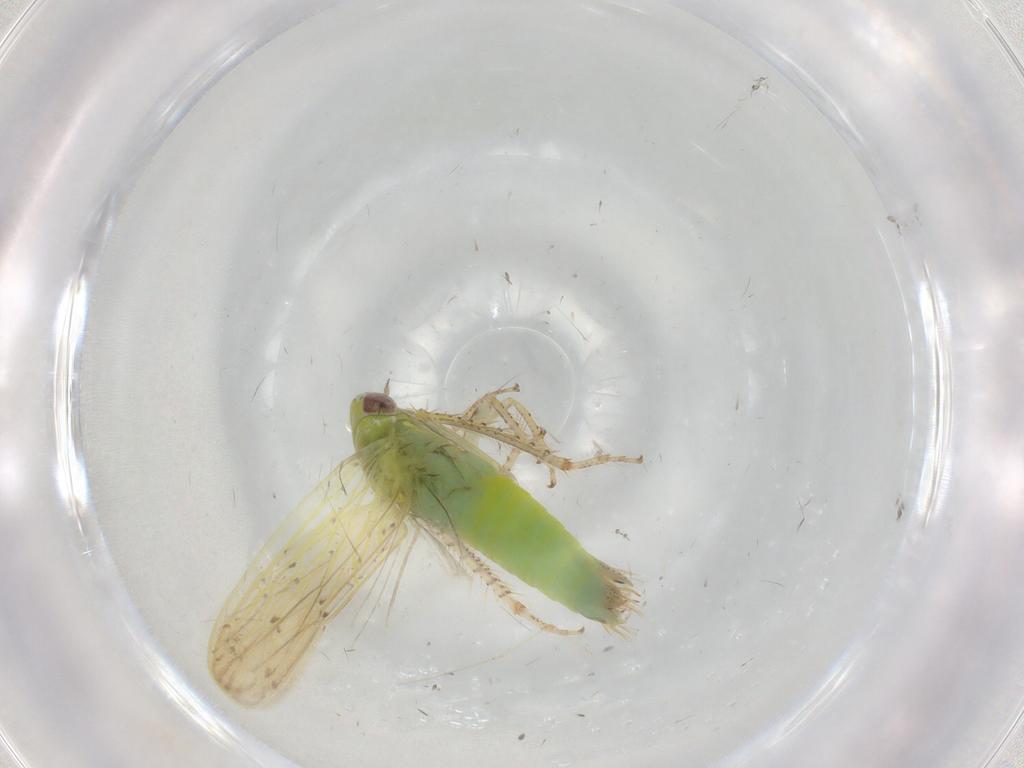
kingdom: Animalia
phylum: Arthropoda
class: Insecta
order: Hemiptera
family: Cicadellidae
